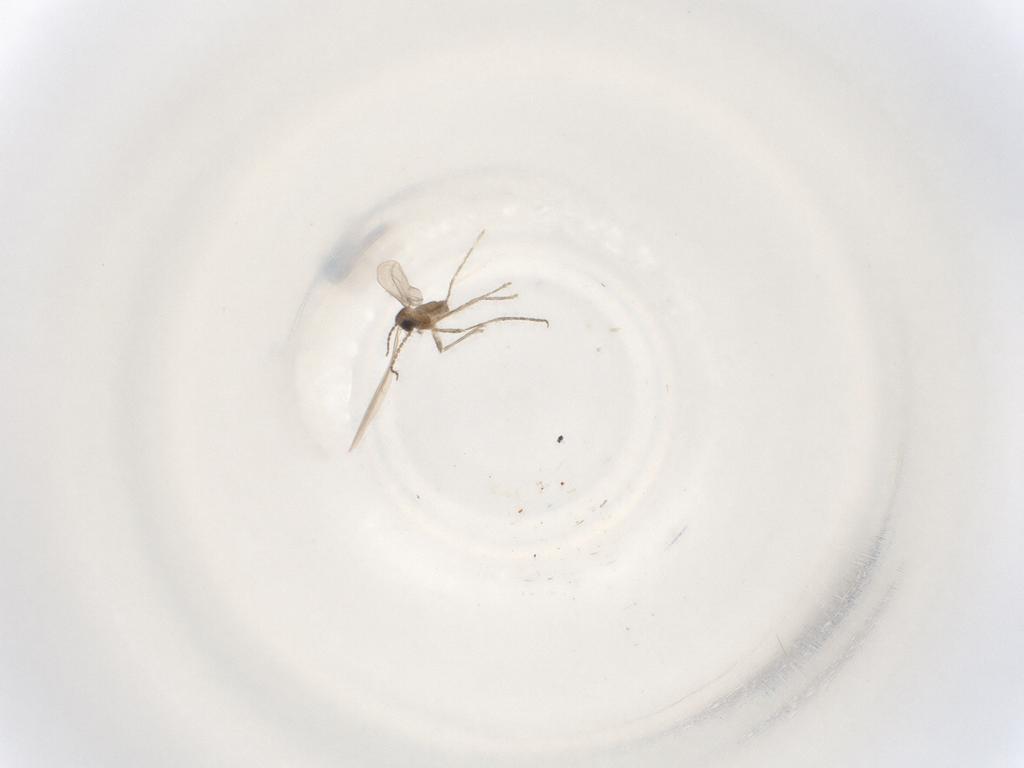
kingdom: Animalia
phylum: Arthropoda
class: Insecta
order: Diptera
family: Cecidomyiidae
